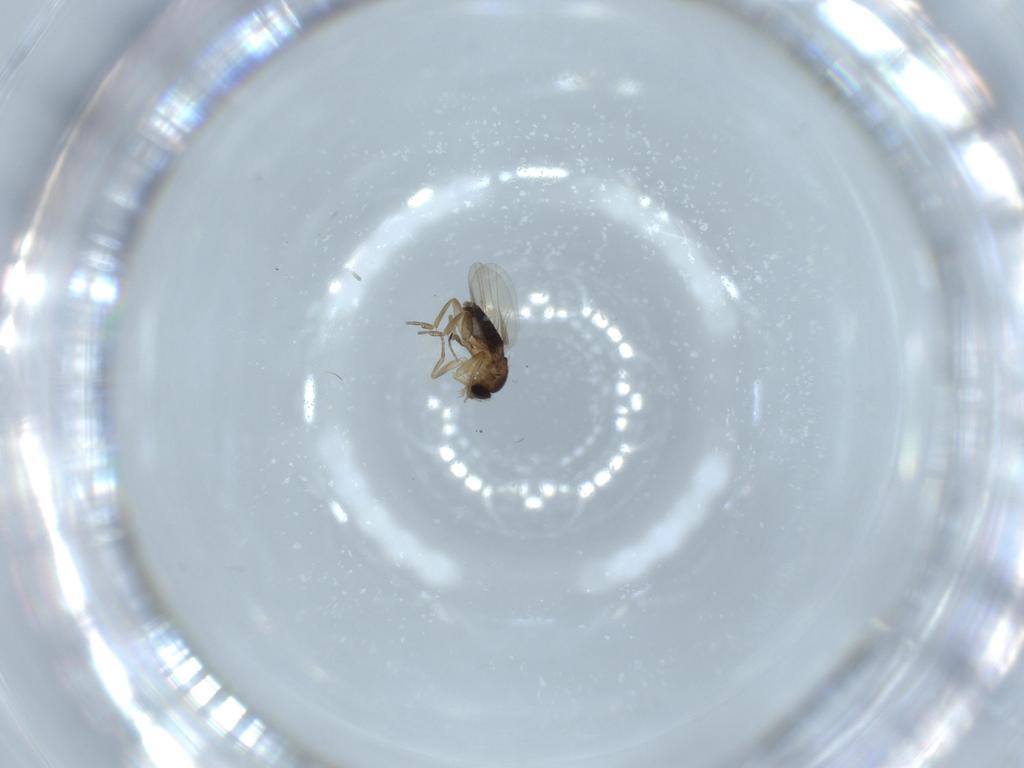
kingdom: Animalia
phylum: Arthropoda
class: Insecta
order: Diptera
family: Phoridae
